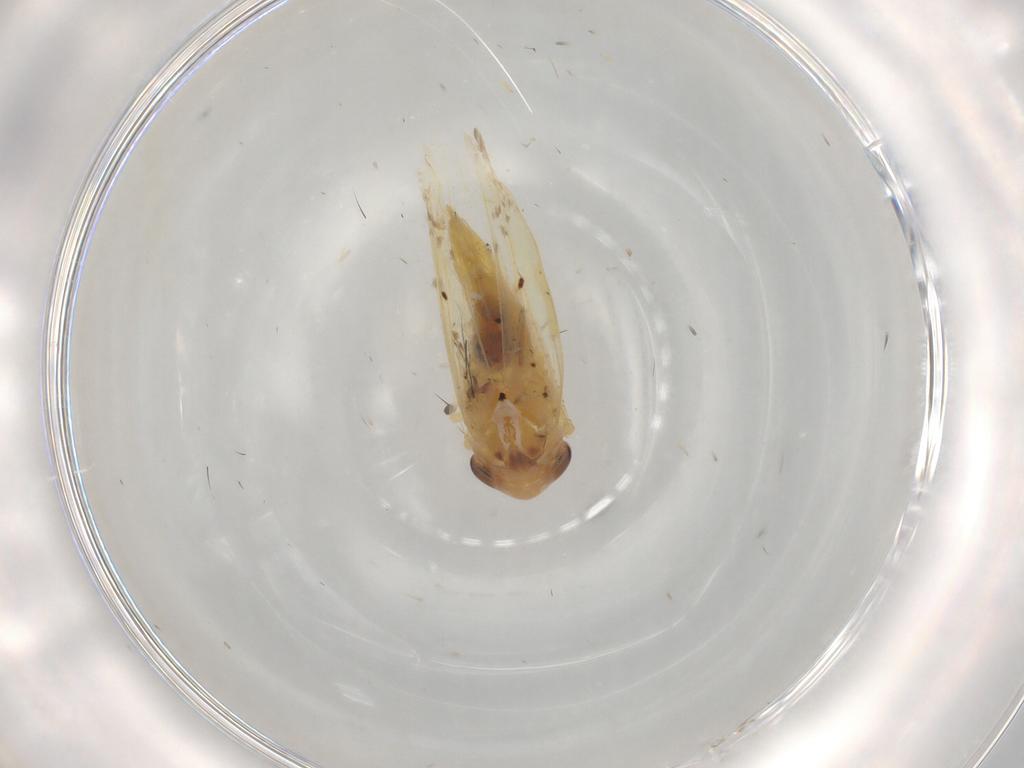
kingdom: Animalia
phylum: Arthropoda
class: Insecta
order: Hemiptera
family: Cicadellidae
